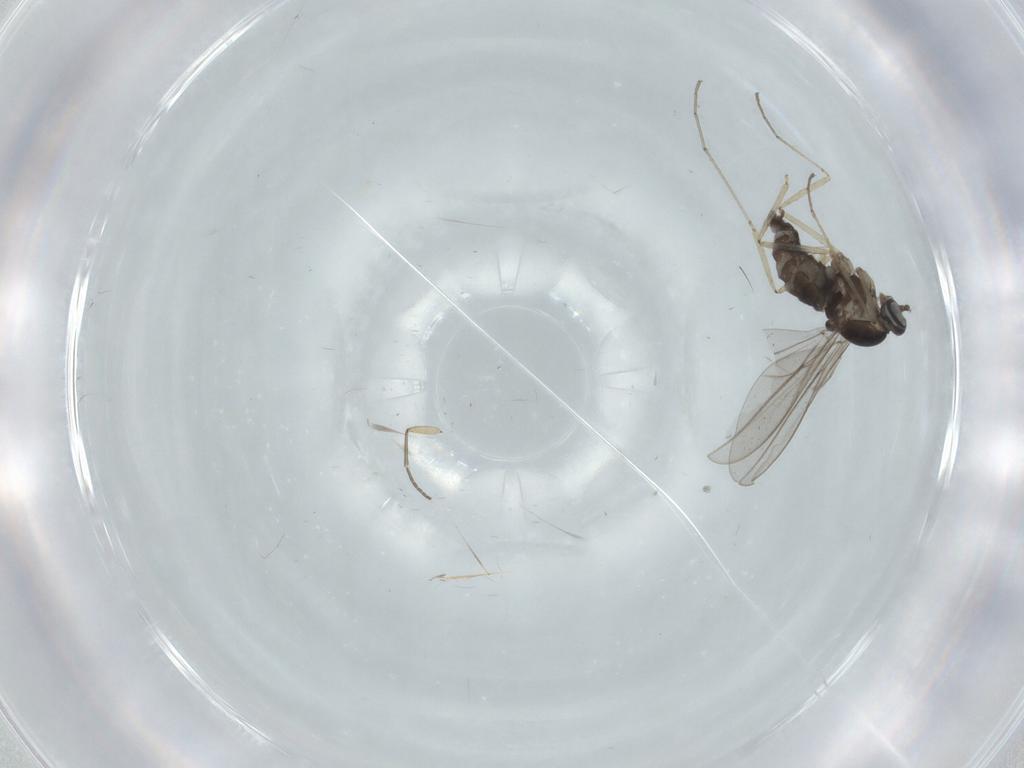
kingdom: Animalia
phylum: Arthropoda
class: Insecta
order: Diptera
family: Cecidomyiidae
